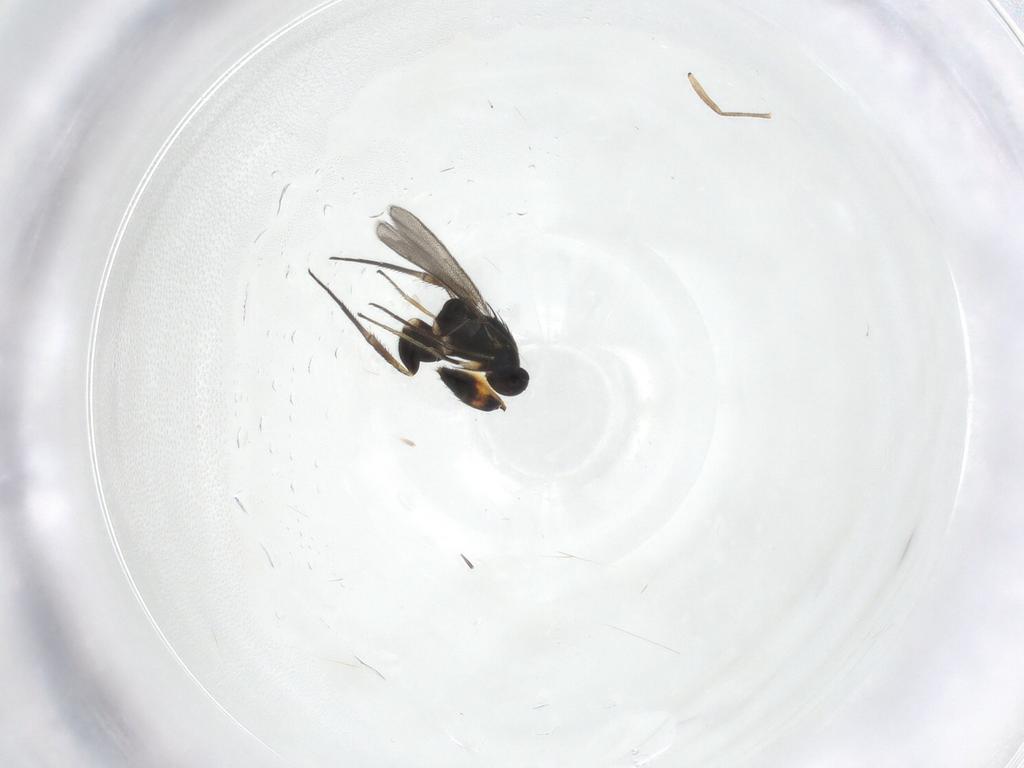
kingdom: Animalia
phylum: Arthropoda
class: Insecta
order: Hymenoptera
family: Eulophidae
